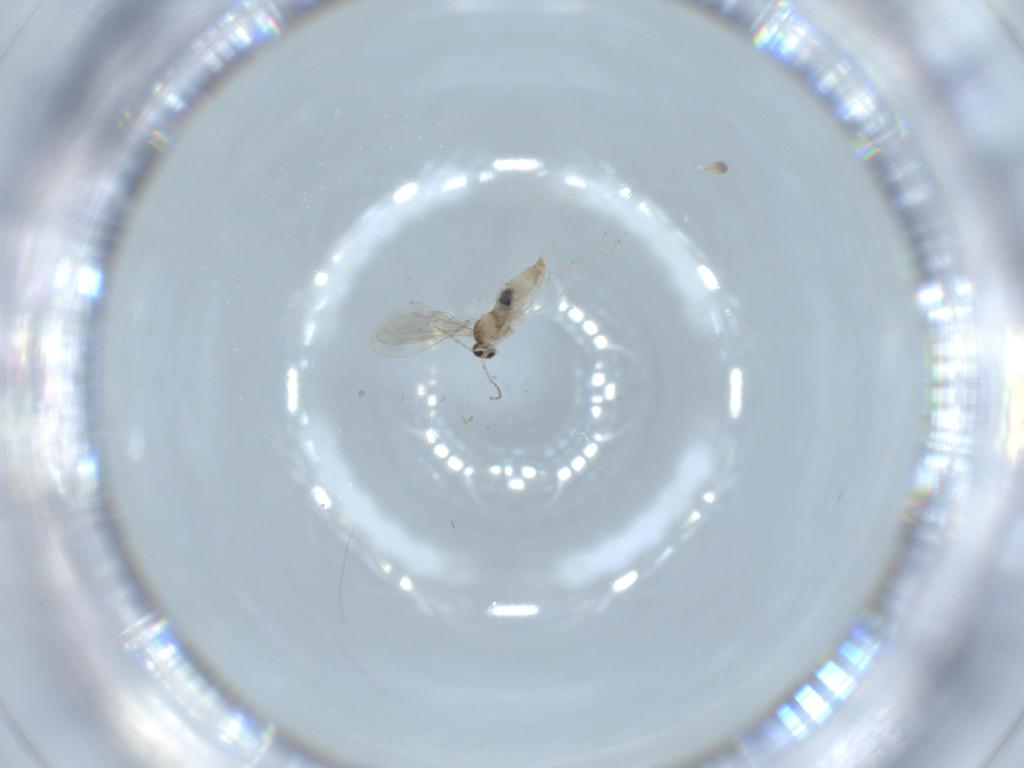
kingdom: Animalia
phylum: Arthropoda
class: Insecta
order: Diptera
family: Cecidomyiidae
